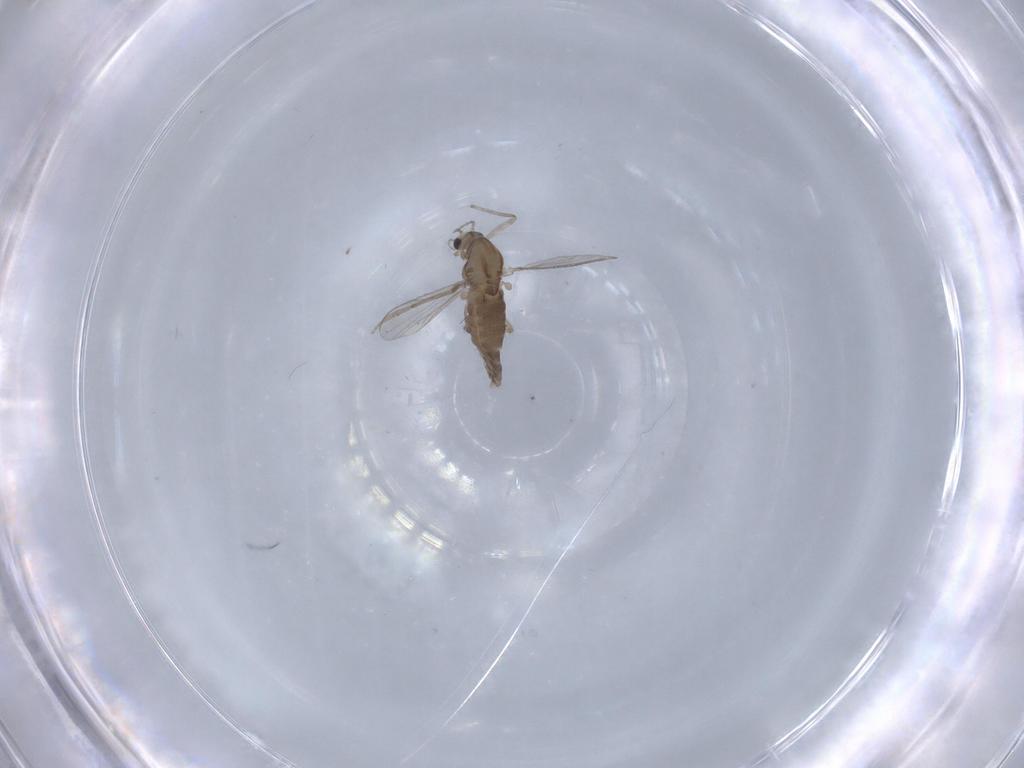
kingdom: Animalia
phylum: Arthropoda
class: Insecta
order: Diptera
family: Chironomidae
